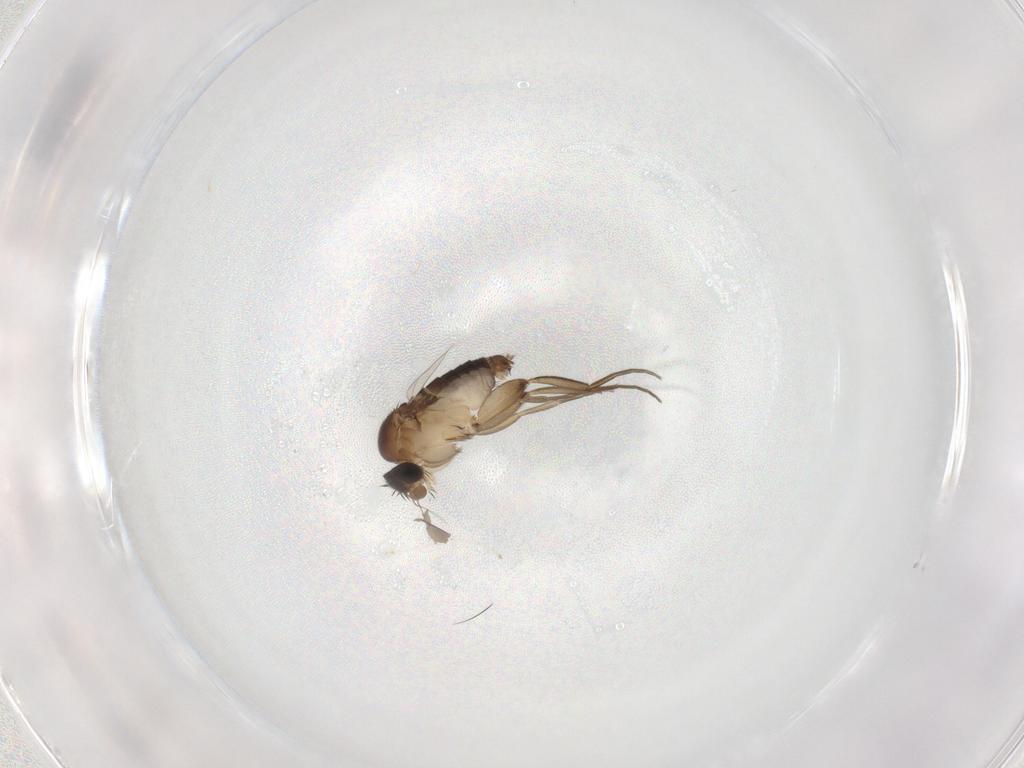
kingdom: Animalia
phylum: Arthropoda
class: Insecta
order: Diptera
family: Phoridae
